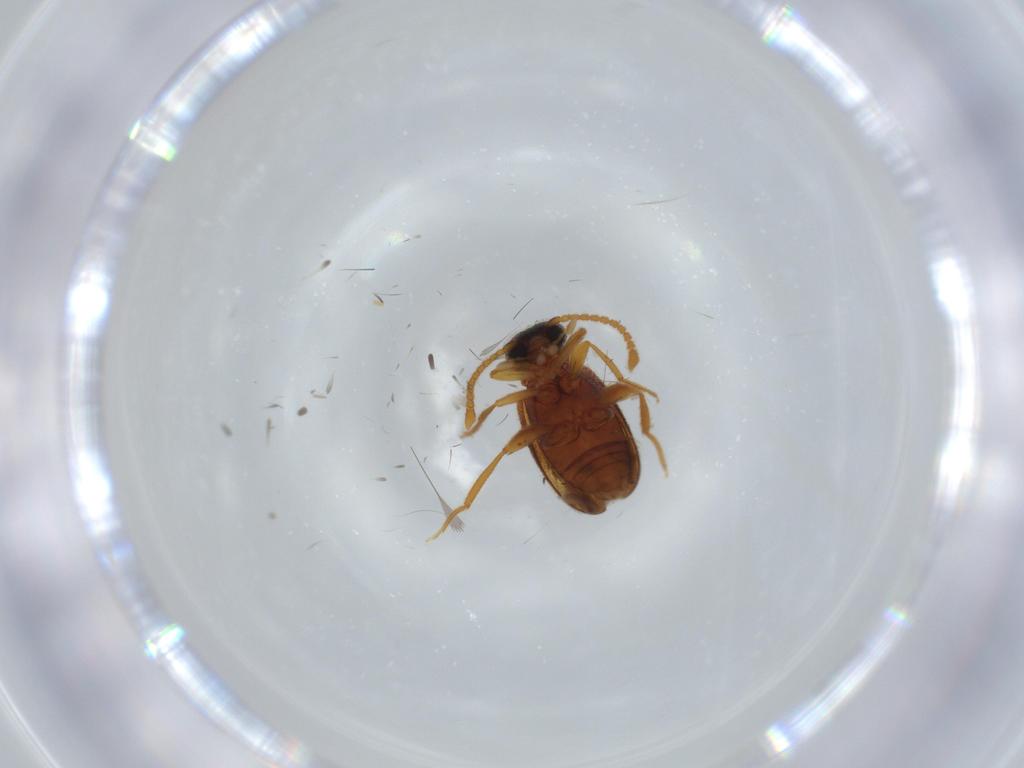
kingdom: Animalia
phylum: Arthropoda
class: Insecta
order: Coleoptera
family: Aderidae
